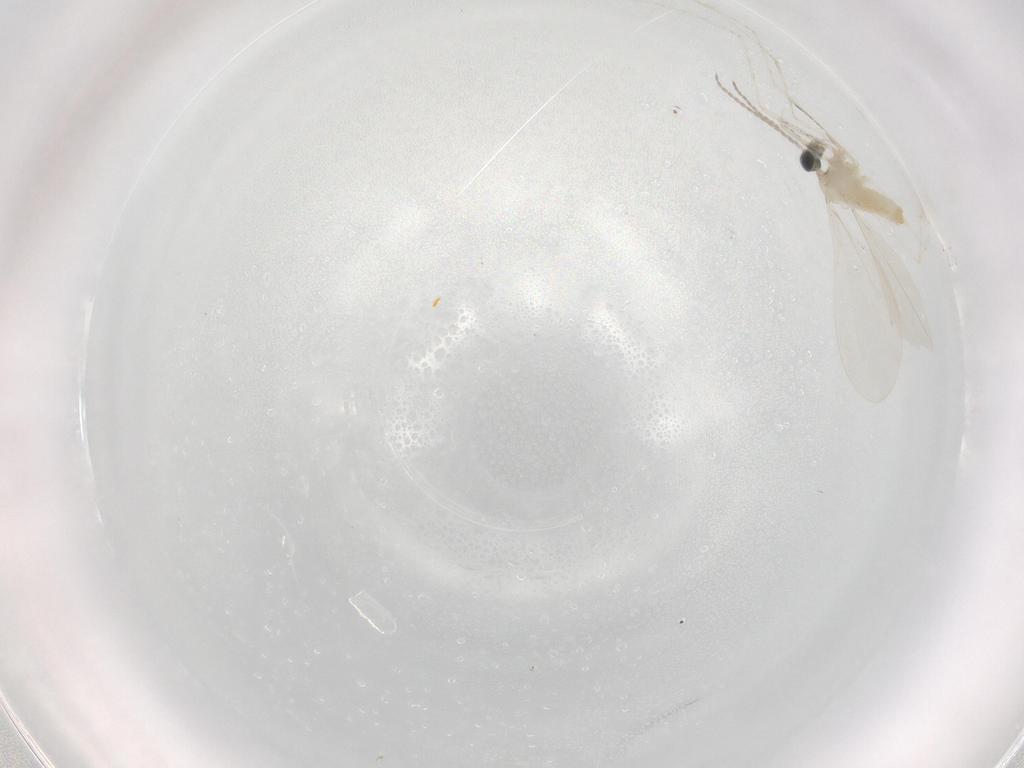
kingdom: Animalia
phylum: Arthropoda
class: Insecta
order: Diptera
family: Cecidomyiidae
